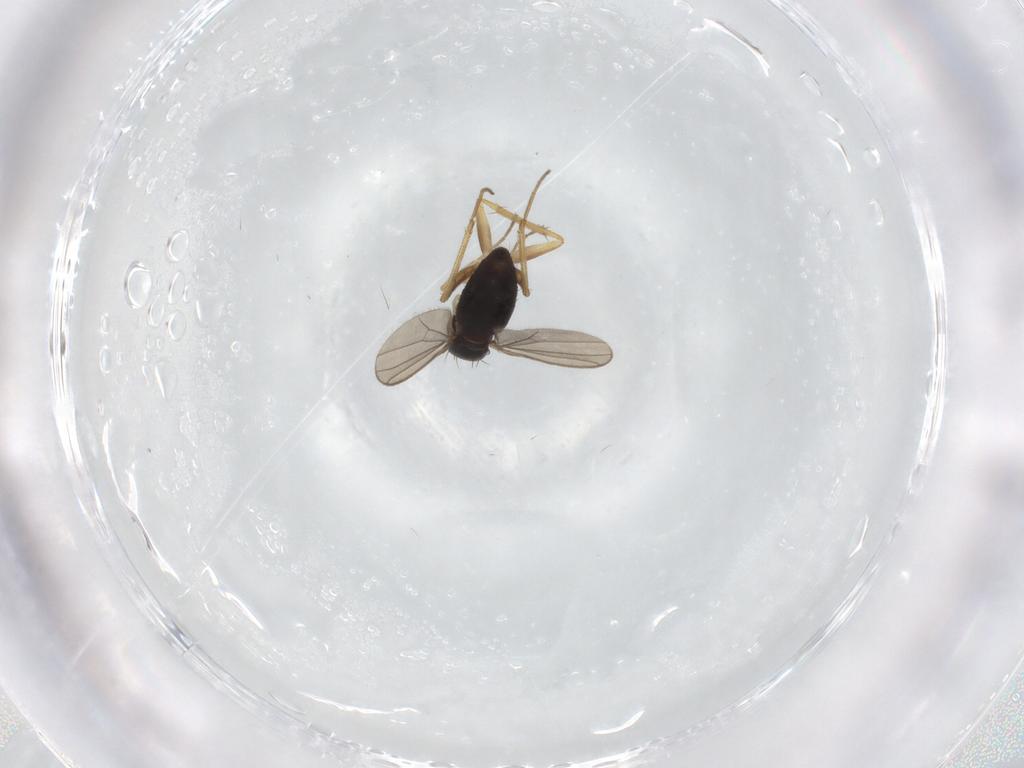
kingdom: Animalia
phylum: Arthropoda
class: Insecta
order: Diptera
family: Dolichopodidae
